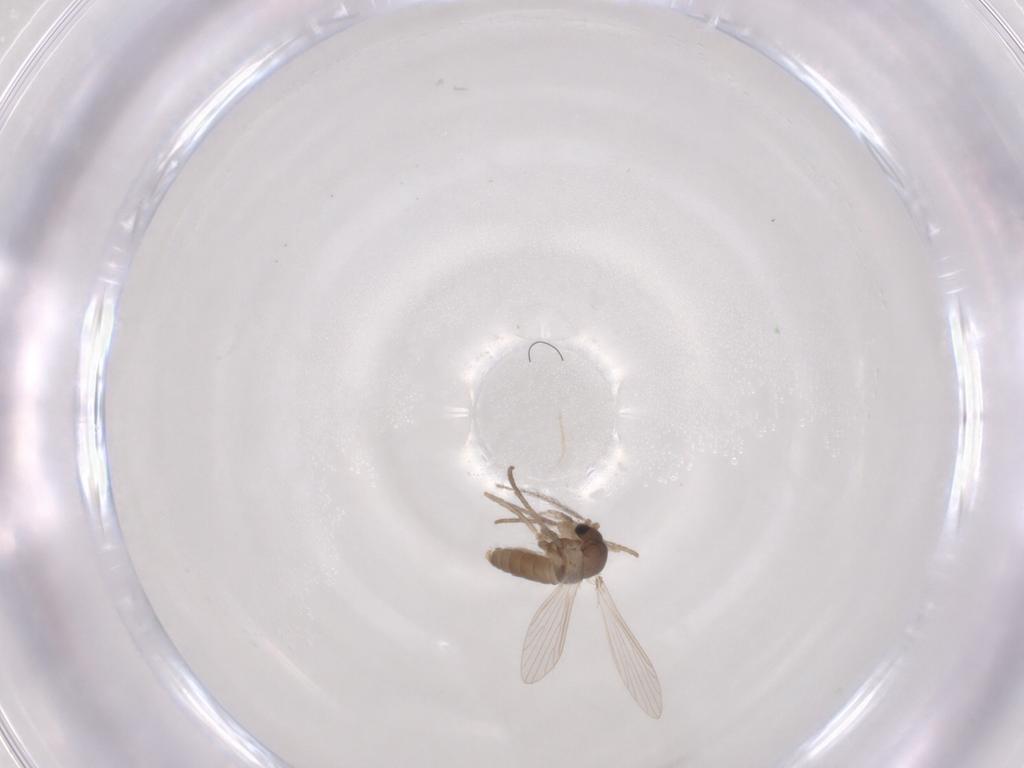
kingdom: Animalia
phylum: Arthropoda
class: Insecta
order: Diptera
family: Psychodidae
